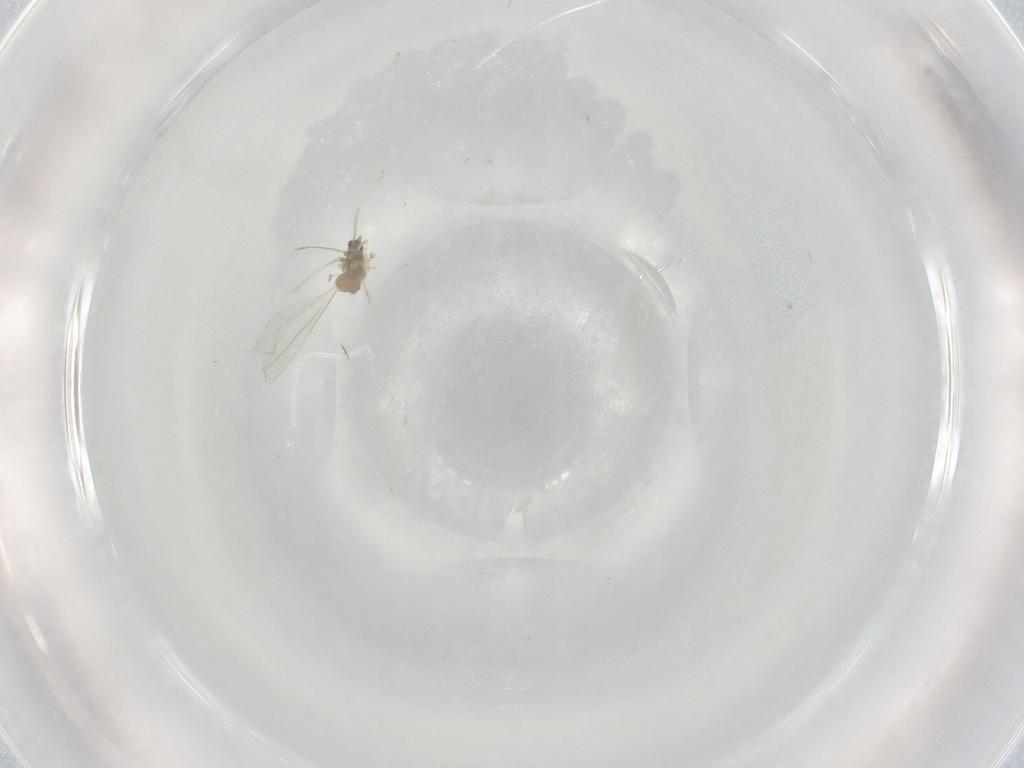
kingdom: Animalia
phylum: Arthropoda
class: Insecta
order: Diptera
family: Cecidomyiidae
